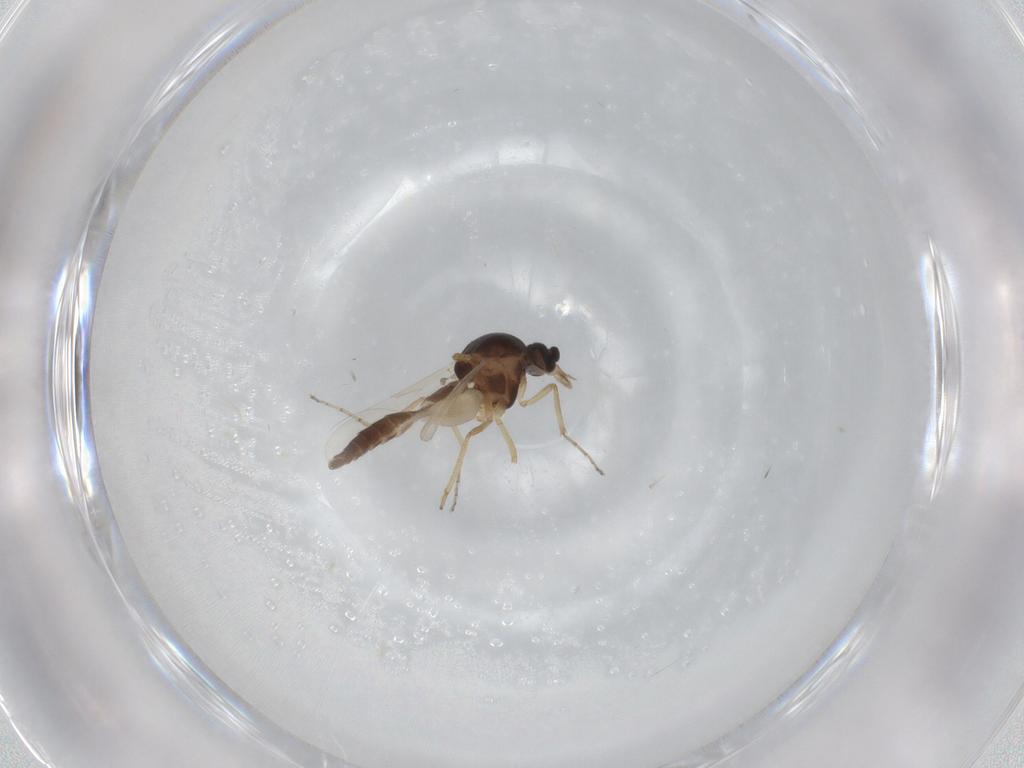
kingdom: Animalia
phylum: Arthropoda
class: Insecta
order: Diptera
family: Ceratopogonidae
